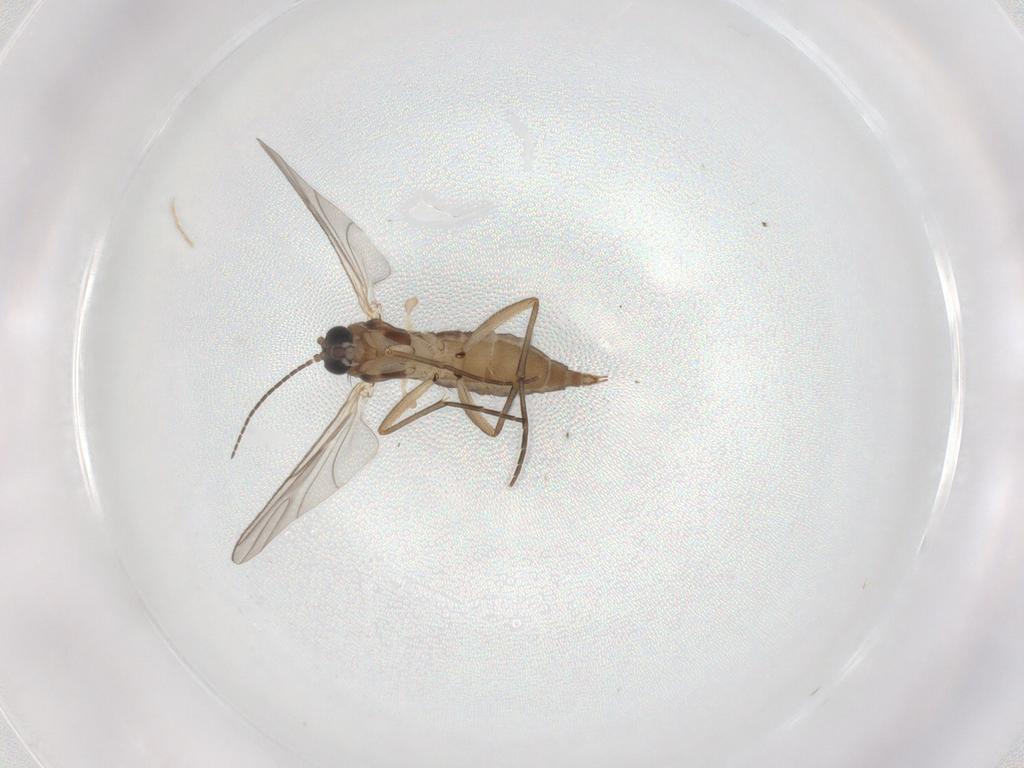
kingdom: Animalia
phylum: Arthropoda
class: Insecta
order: Diptera
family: Sciaridae
